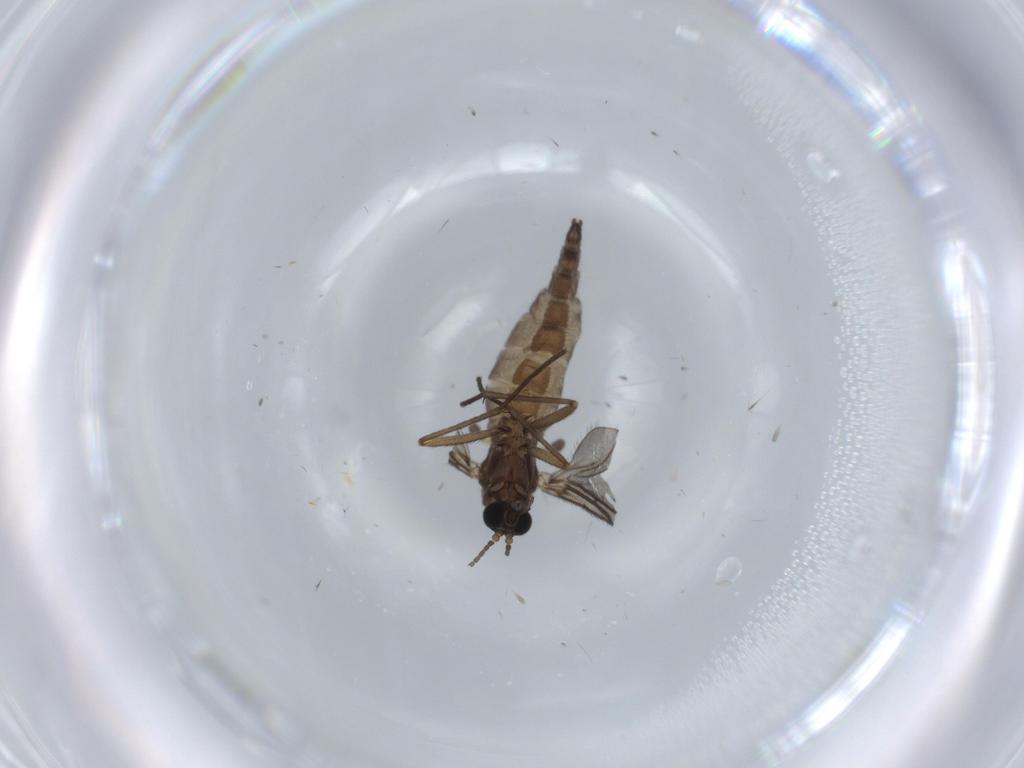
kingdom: Animalia
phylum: Arthropoda
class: Insecta
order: Diptera
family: Sciaridae
